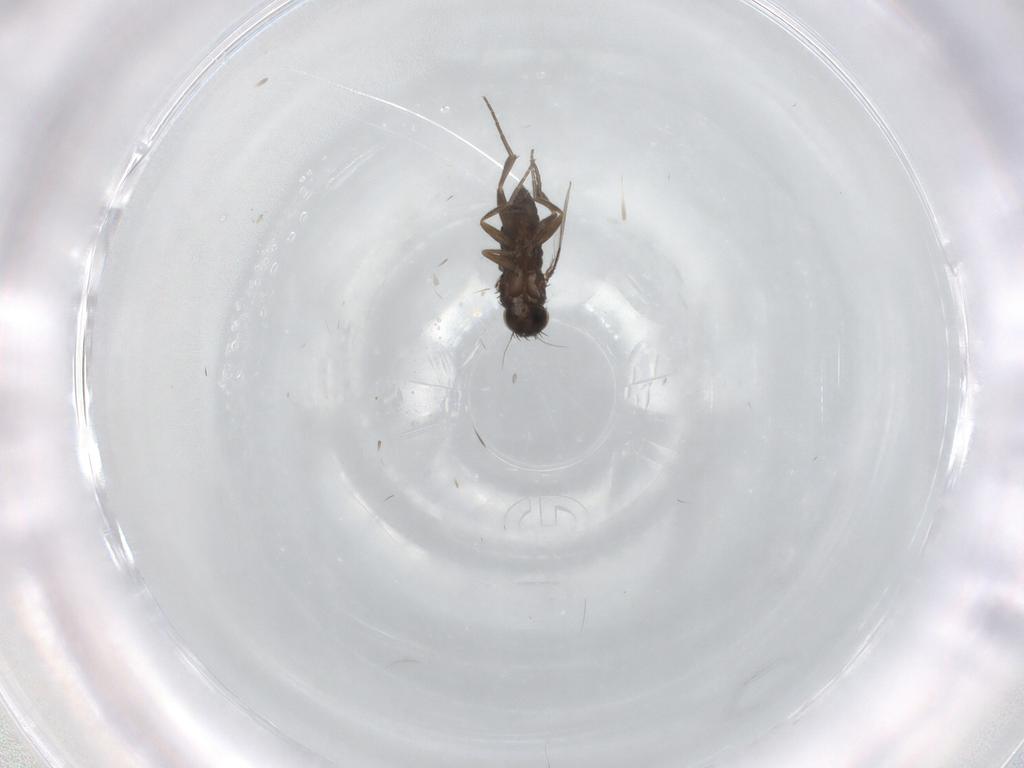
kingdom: Animalia
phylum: Arthropoda
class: Insecta
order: Diptera
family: Phoridae
